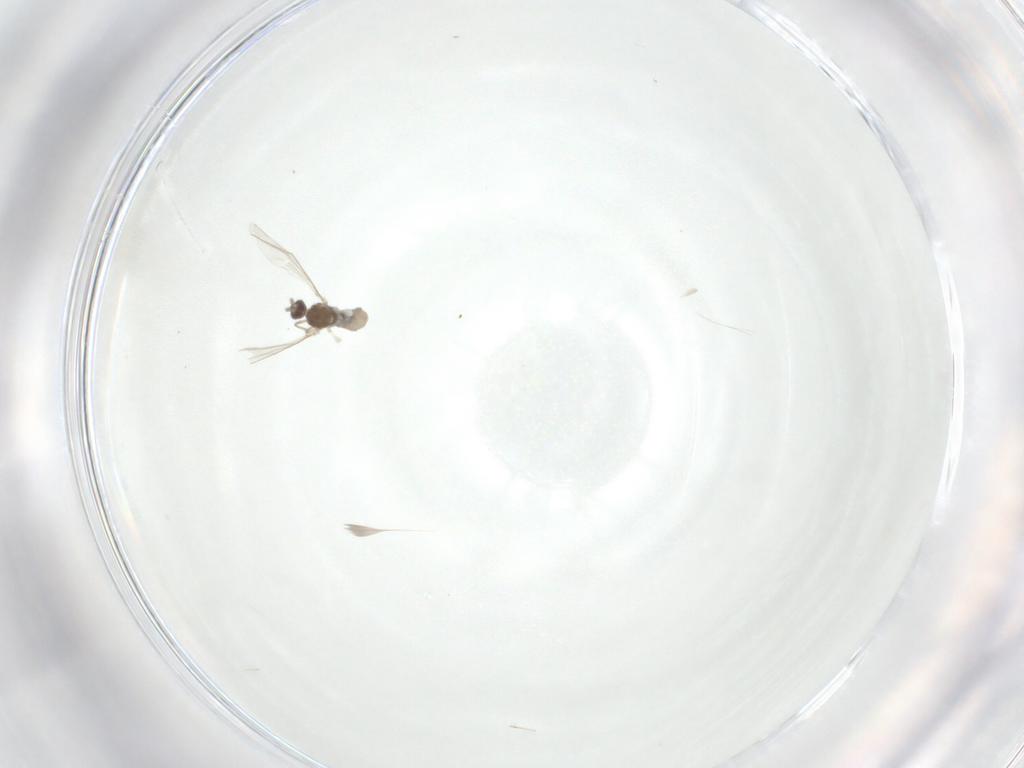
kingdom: Animalia
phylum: Arthropoda
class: Insecta
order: Diptera
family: Cecidomyiidae
